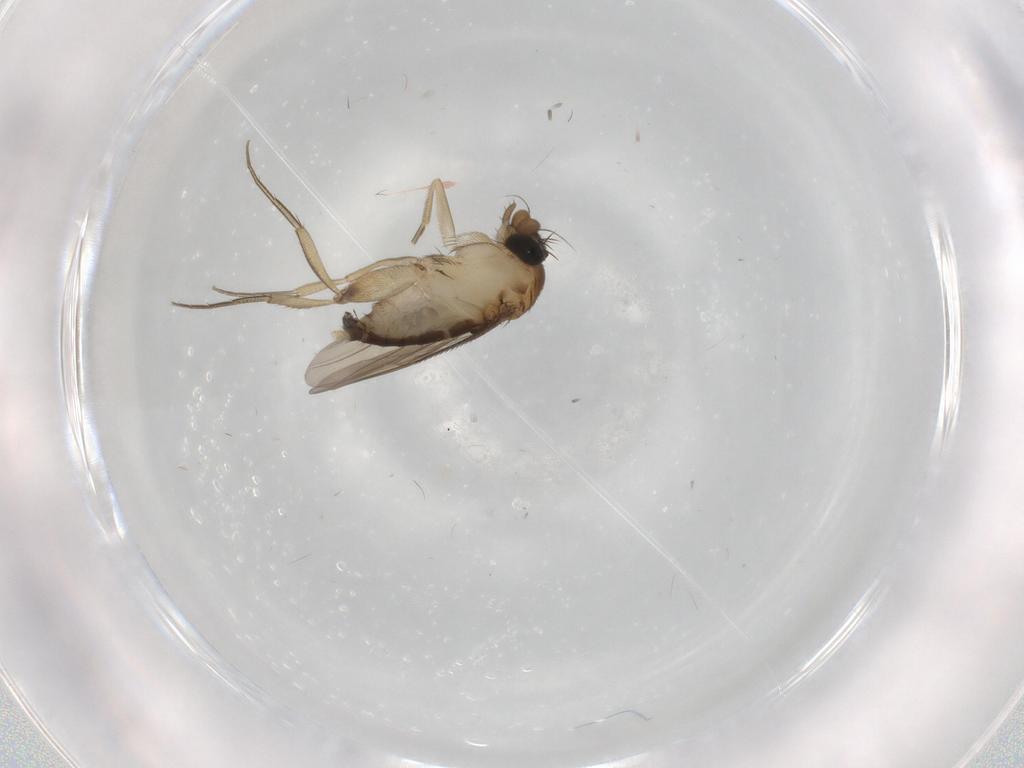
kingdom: Animalia
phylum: Arthropoda
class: Insecta
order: Diptera
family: Phoridae
